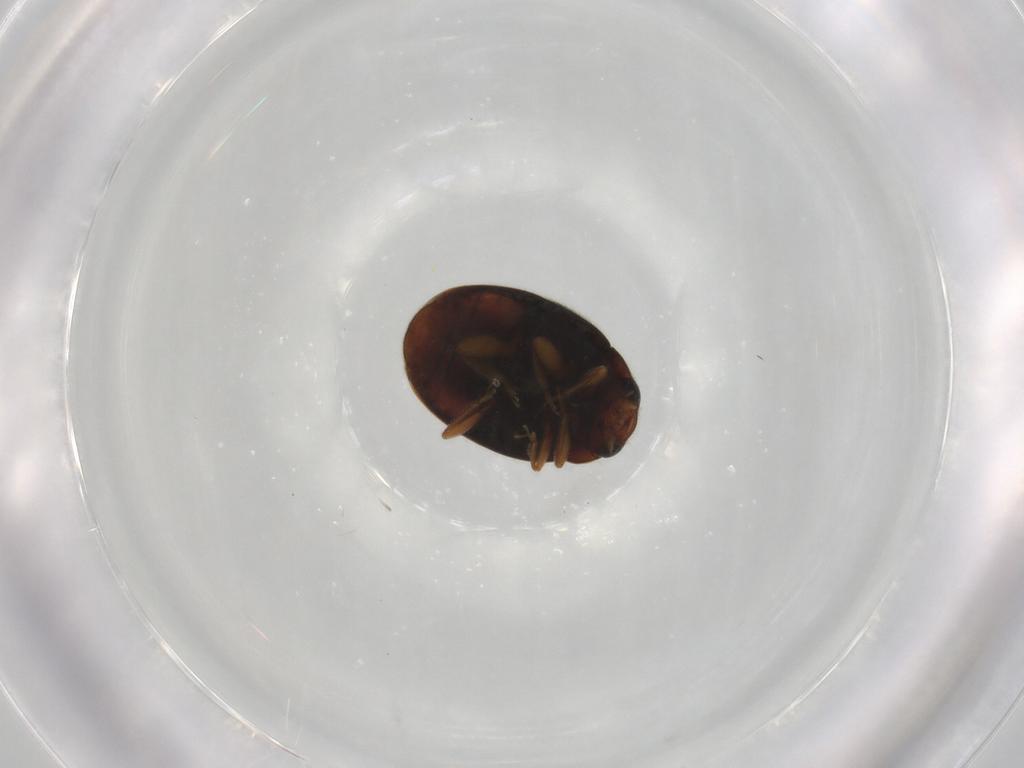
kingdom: Animalia
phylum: Arthropoda
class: Insecta
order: Coleoptera
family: Coccinellidae
